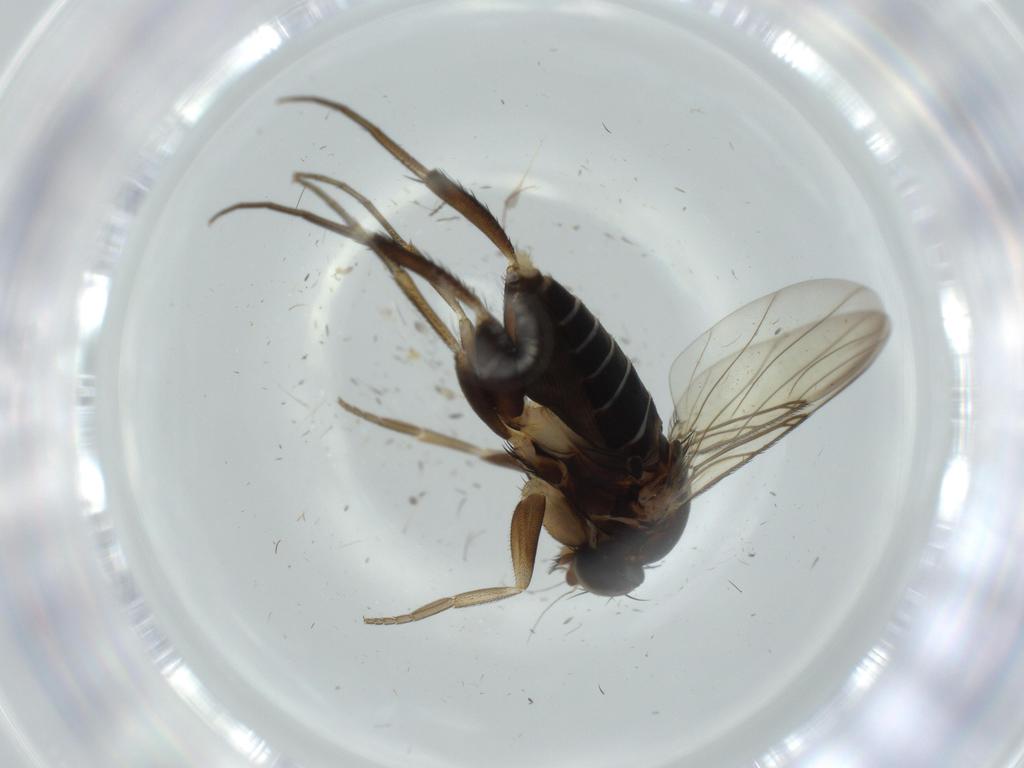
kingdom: Animalia
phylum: Arthropoda
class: Insecta
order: Diptera
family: Phoridae
